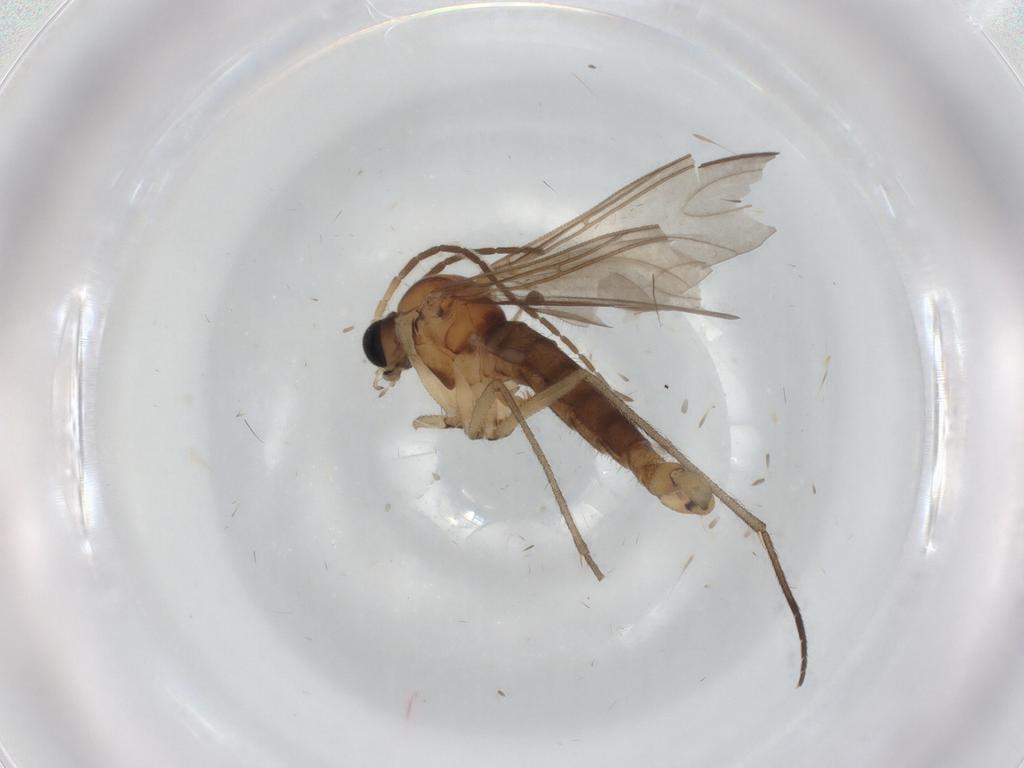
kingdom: Animalia
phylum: Arthropoda
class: Insecta
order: Diptera
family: Sciaridae
